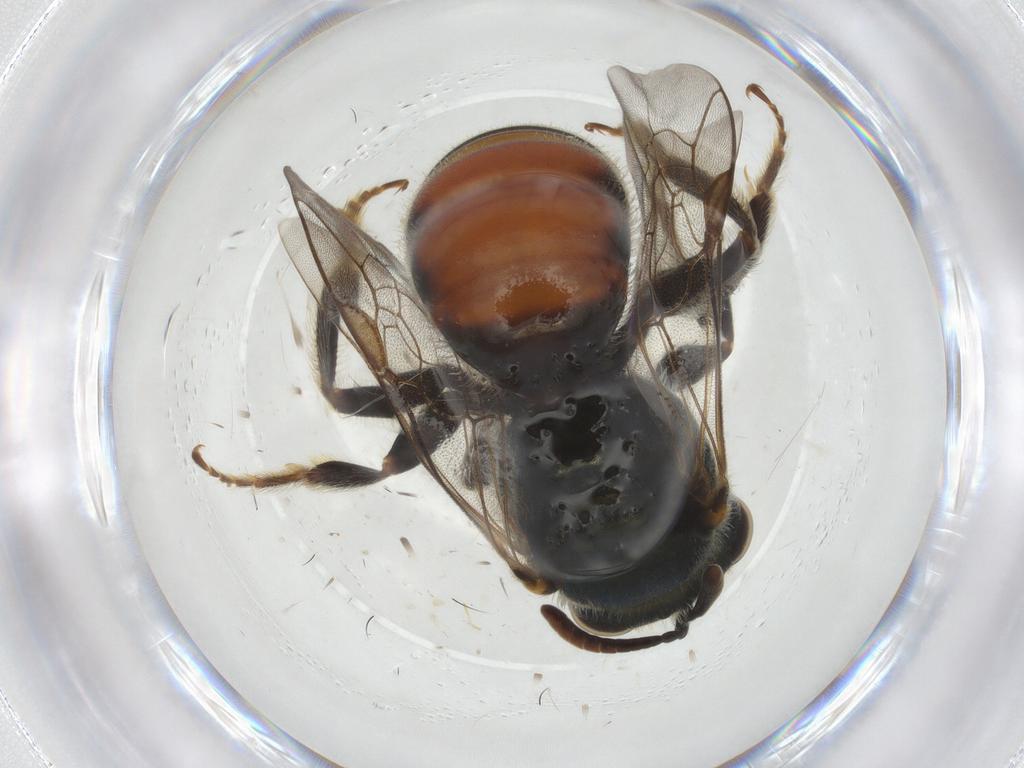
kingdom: Animalia
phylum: Arthropoda
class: Insecta
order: Hymenoptera
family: Halictidae
